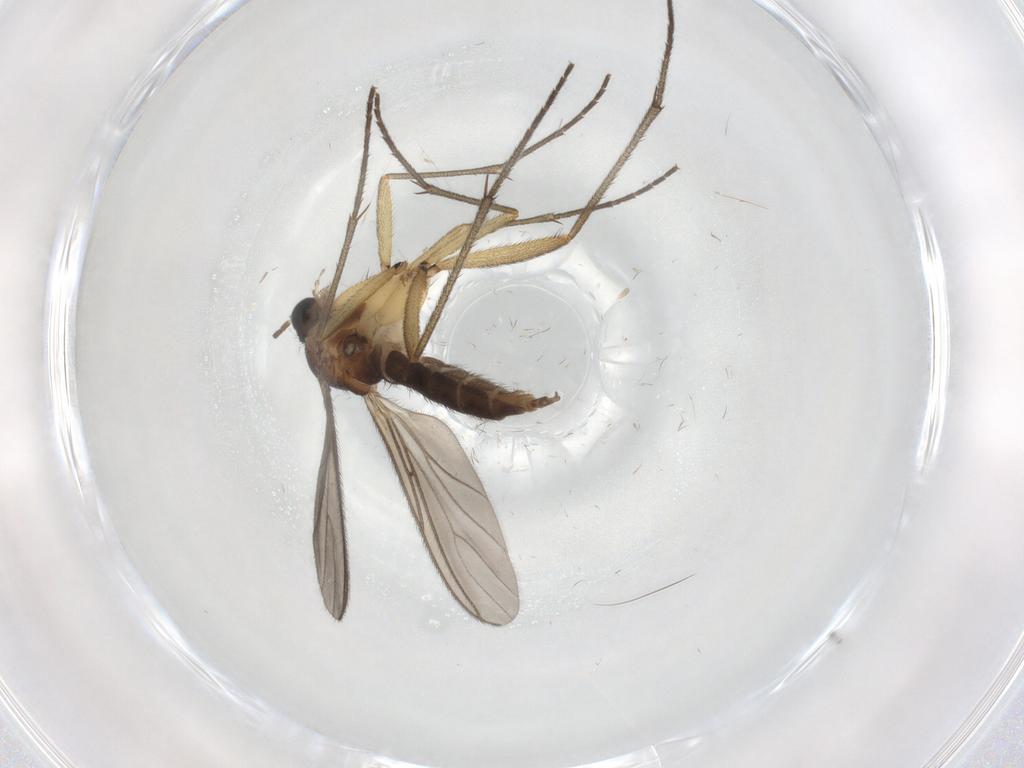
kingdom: Animalia
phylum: Arthropoda
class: Insecta
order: Diptera
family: Sciaridae
